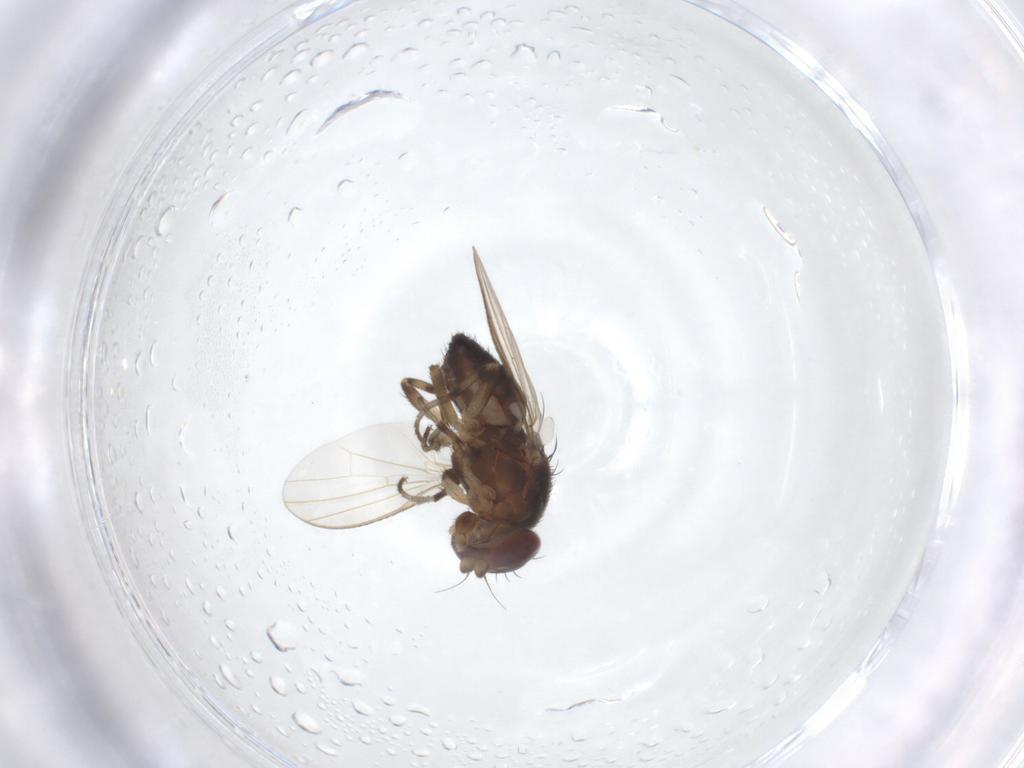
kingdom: Animalia
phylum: Arthropoda
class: Insecta
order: Diptera
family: Heleomyzidae
